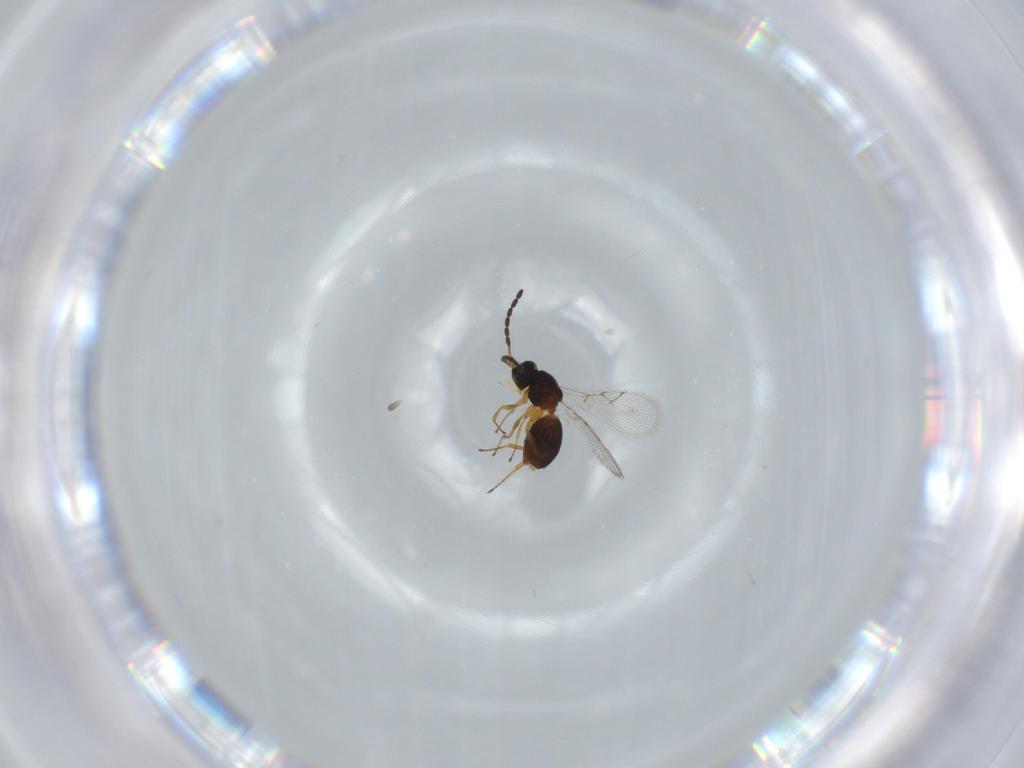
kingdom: Animalia
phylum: Arthropoda
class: Insecta
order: Hymenoptera
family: Figitidae
